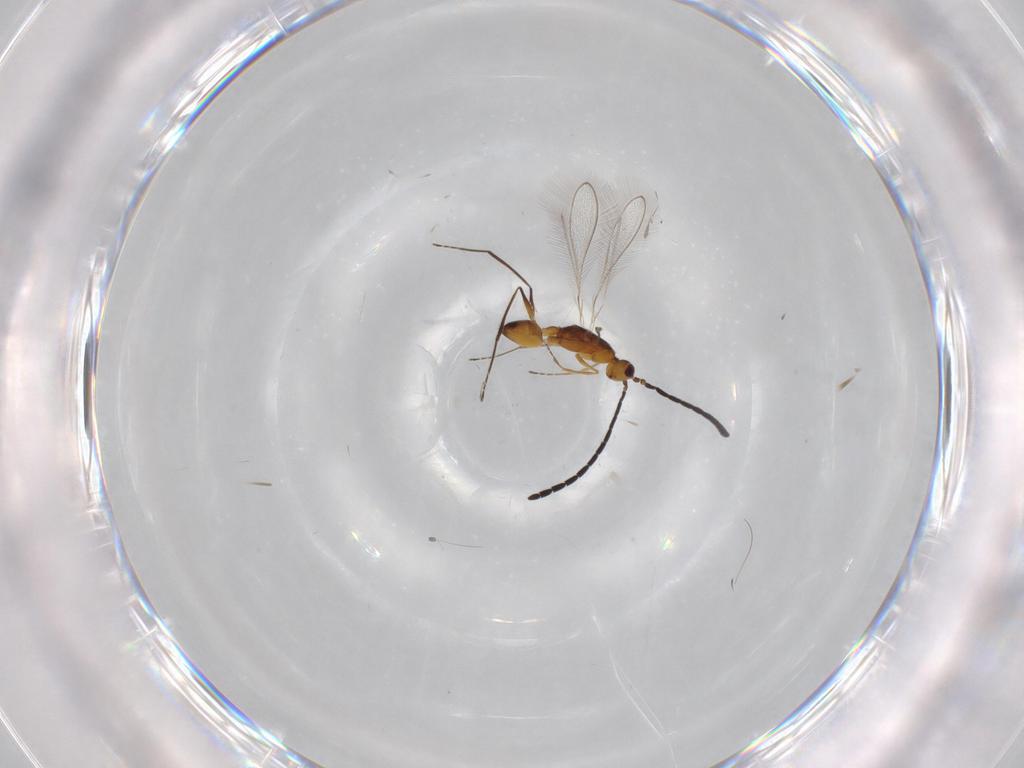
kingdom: Animalia
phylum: Arthropoda
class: Insecta
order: Hymenoptera
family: Mymaridae
